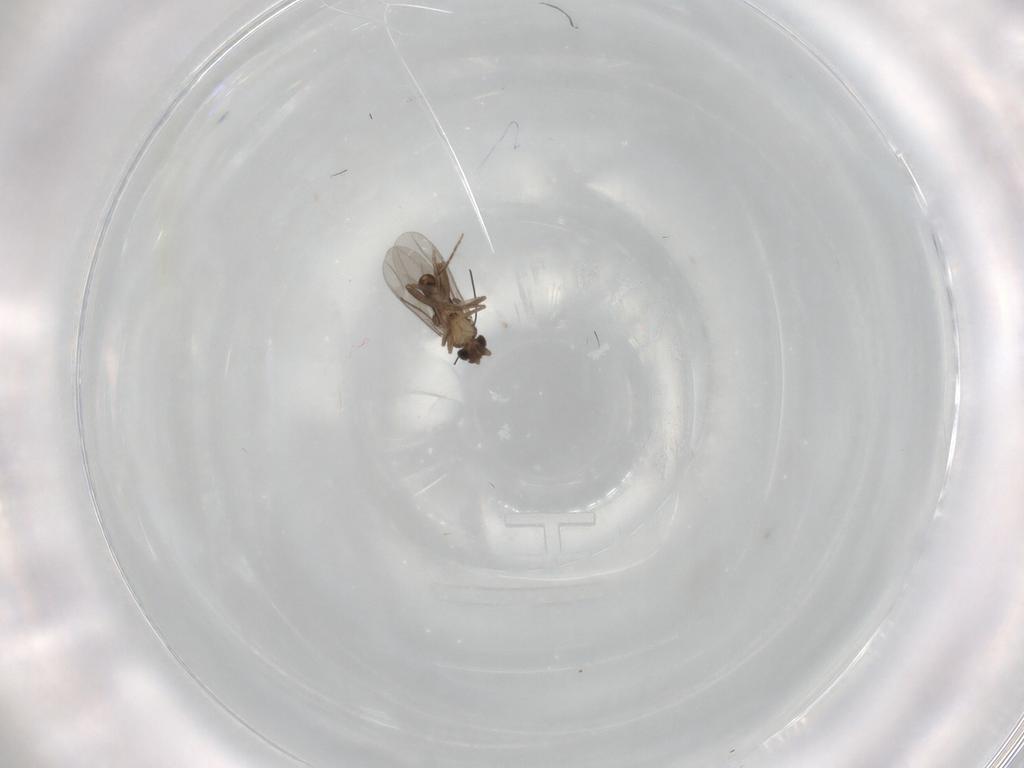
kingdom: Animalia
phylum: Arthropoda
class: Insecta
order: Diptera
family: Muscidae
